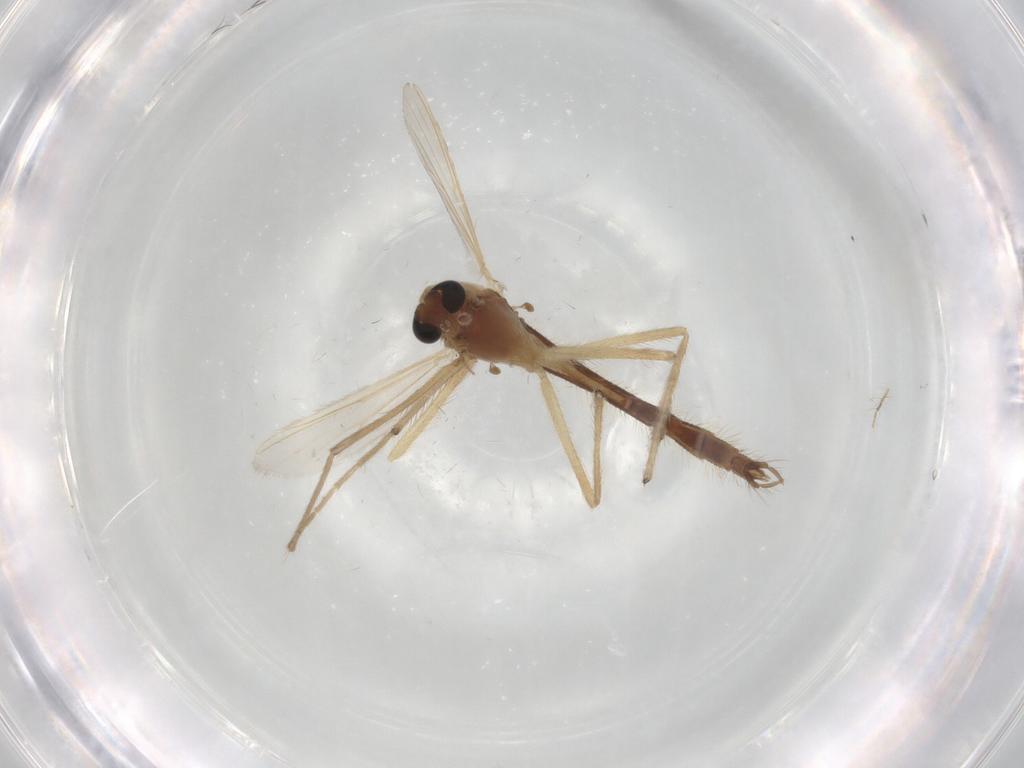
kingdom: Animalia
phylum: Arthropoda
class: Insecta
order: Diptera
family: Chironomidae
